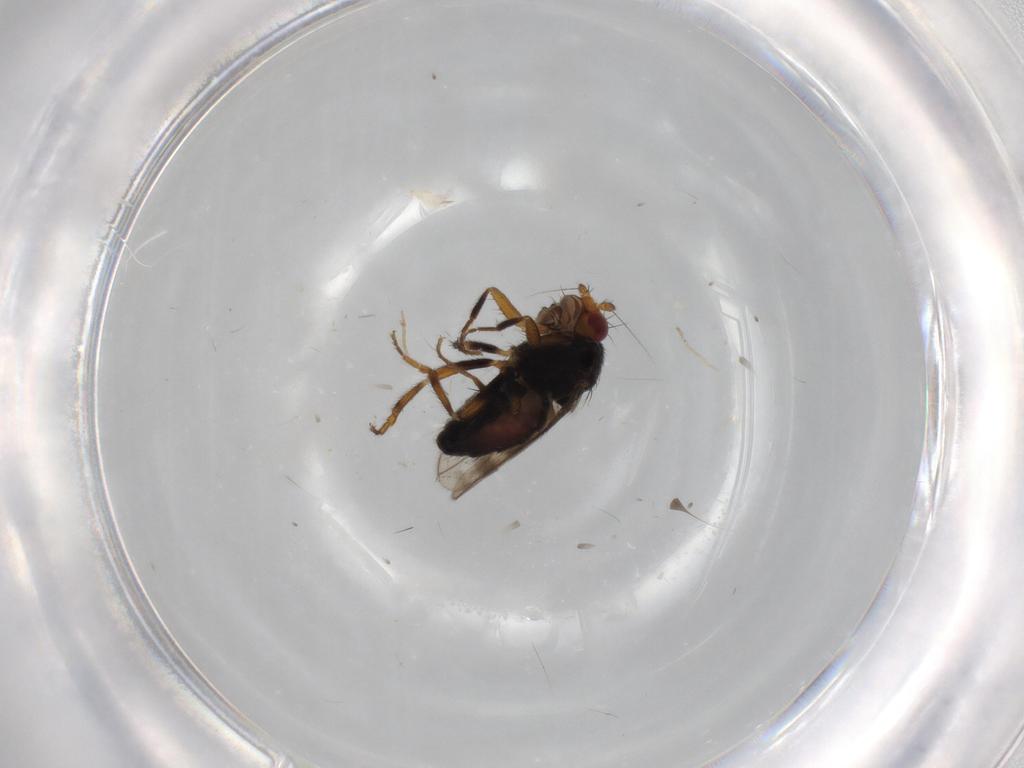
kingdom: Animalia
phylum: Arthropoda
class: Insecta
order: Diptera
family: Sphaeroceridae
